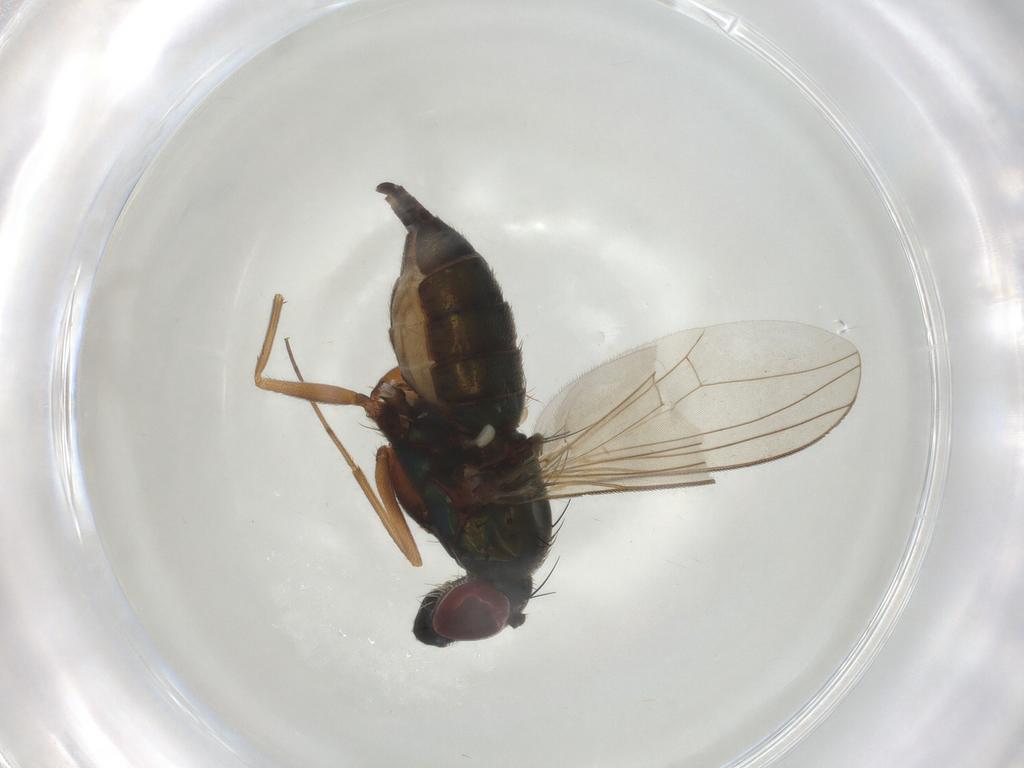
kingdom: Animalia
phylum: Arthropoda
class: Insecta
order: Diptera
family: Dolichopodidae
